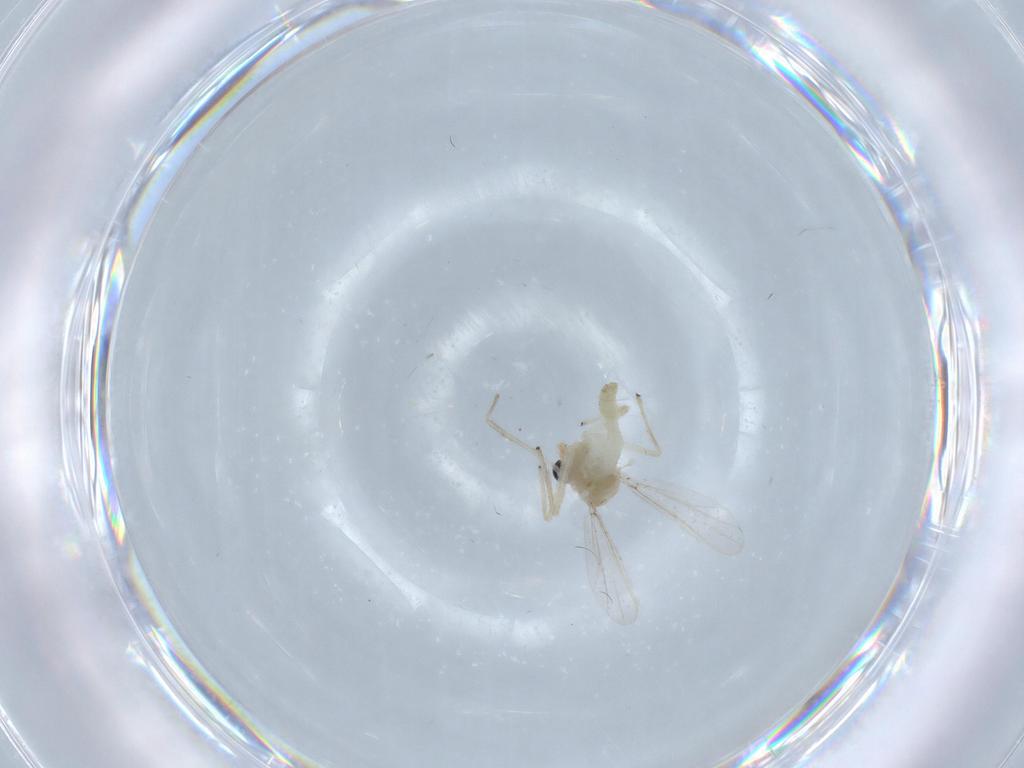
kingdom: Animalia
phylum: Arthropoda
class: Insecta
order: Diptera
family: Chironomidae
